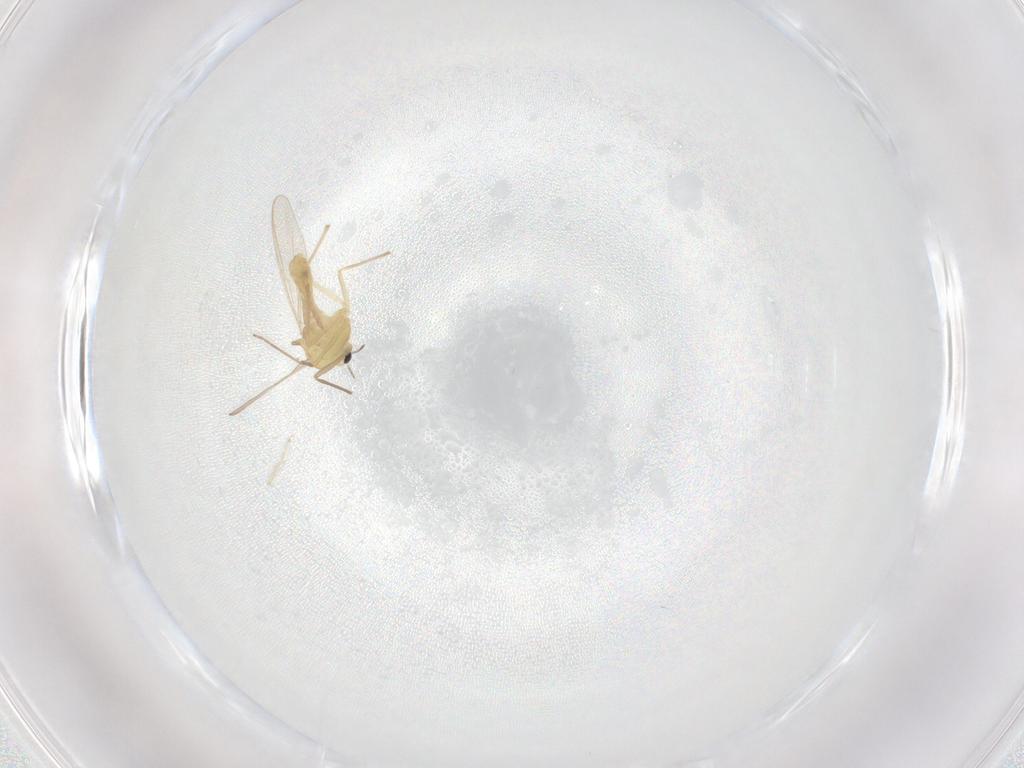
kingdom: Animalia
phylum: Arthropoda
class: Insecta
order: Diptera
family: Chironomidae
